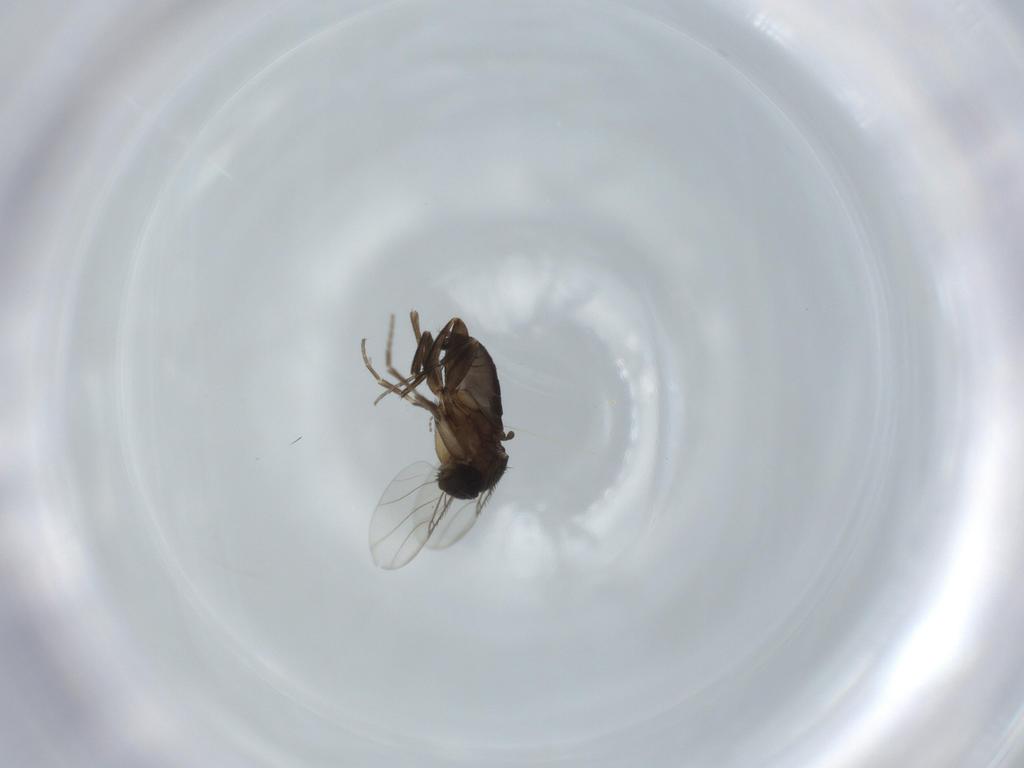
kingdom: Animalia
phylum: Arthropoda
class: Insecta
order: Diptera
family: Phoridae
